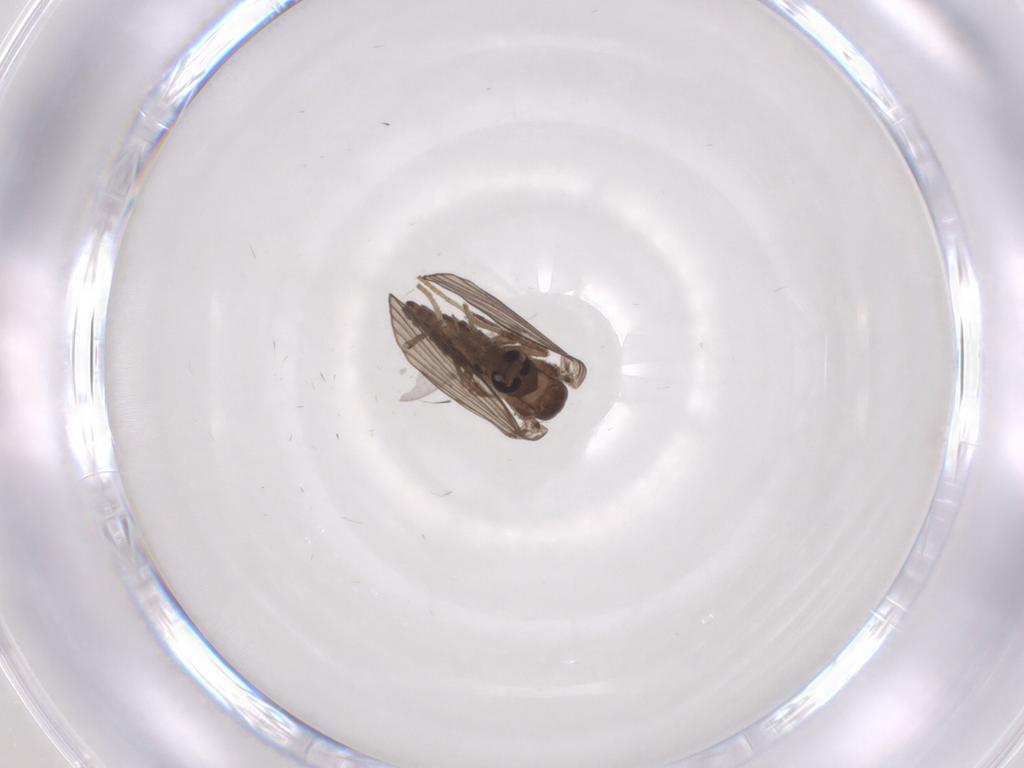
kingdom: Animalia
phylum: Arthropoda
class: Insecta
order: Diptera
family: Psychodidae
